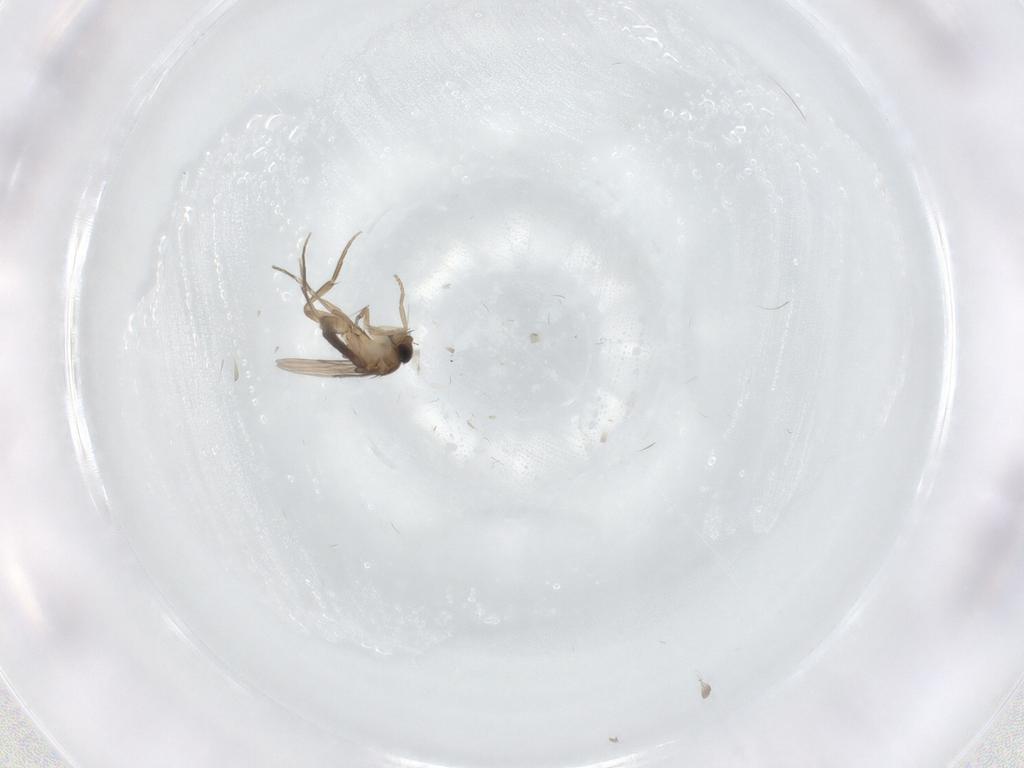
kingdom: Animalia
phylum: Arthropoda
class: Insecta
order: Diptera
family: Phoridae
